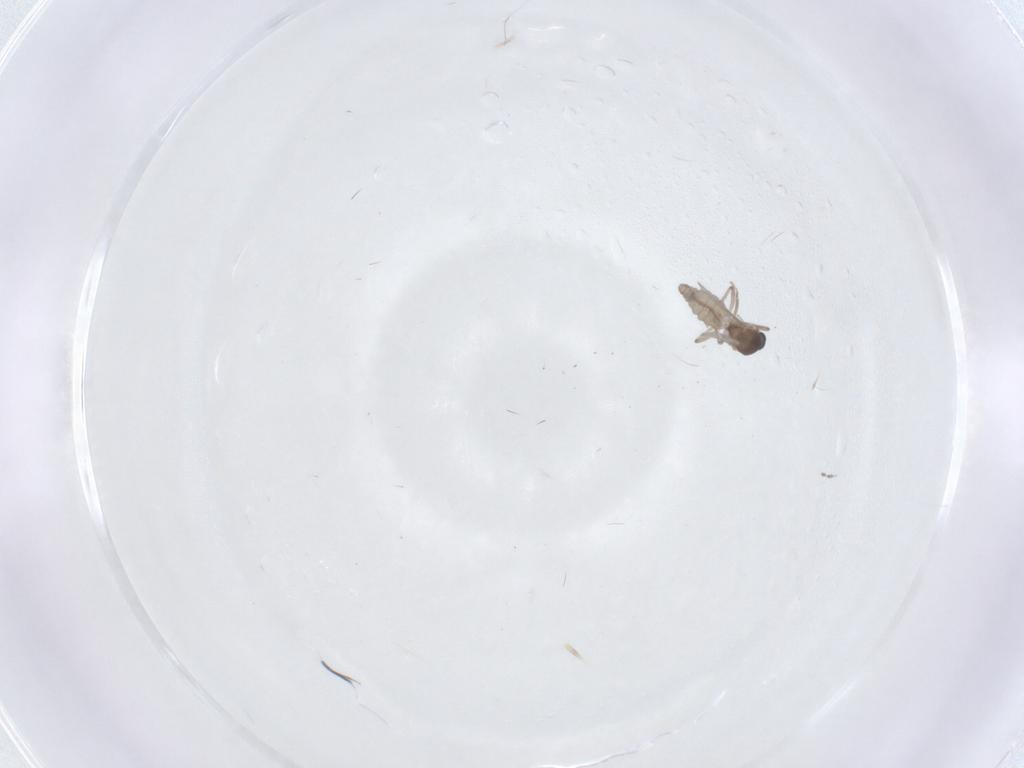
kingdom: Animalia
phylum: Arthropoda
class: Insecta
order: Diptera
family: Ceratopogonidae
